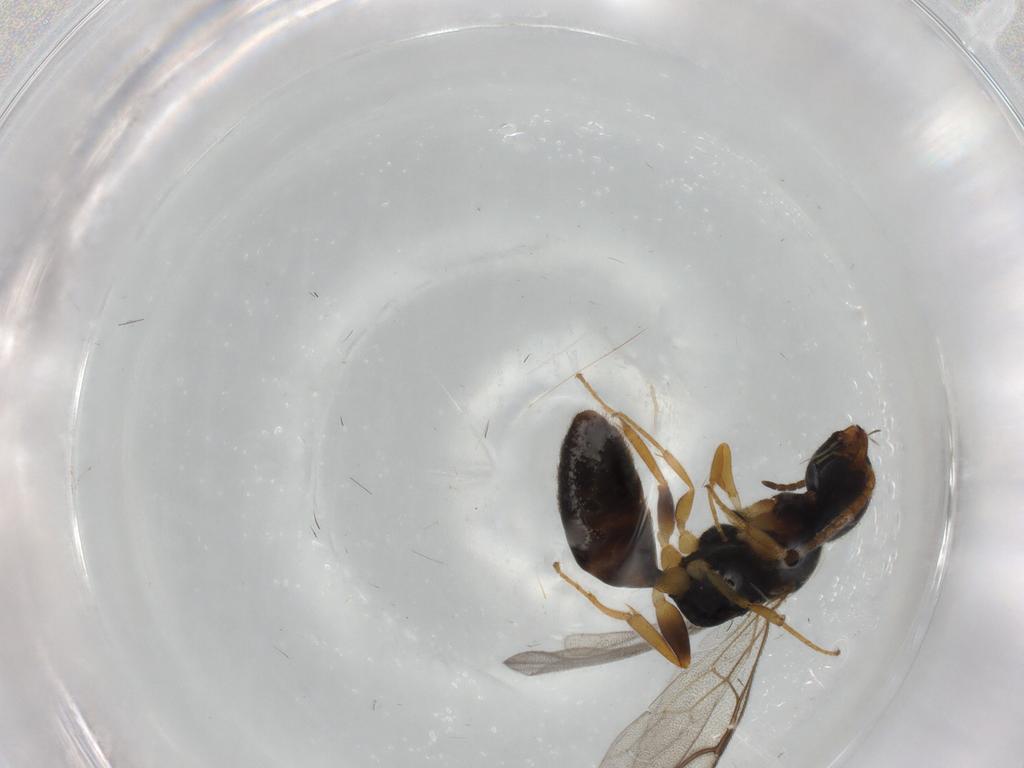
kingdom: Animalia
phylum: Arthropoda
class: Insecta
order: Hymenoptera
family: Bethylidae
